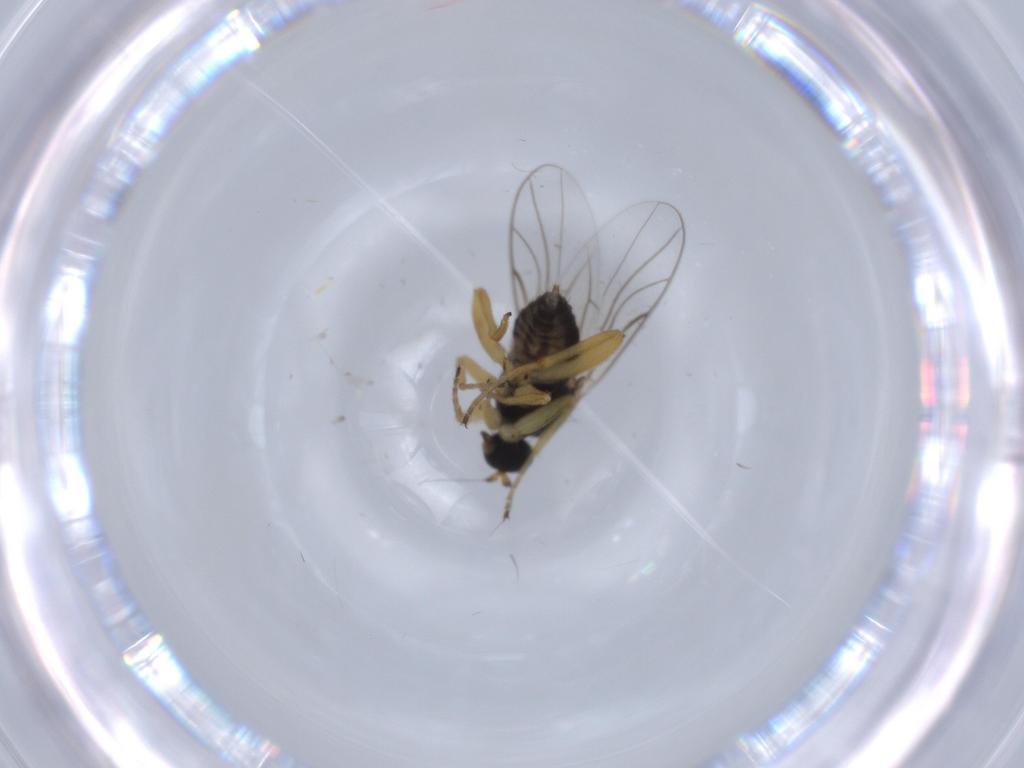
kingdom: Animalia
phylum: Arthropoda
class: Insecta
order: Diptera
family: Hybotidae
